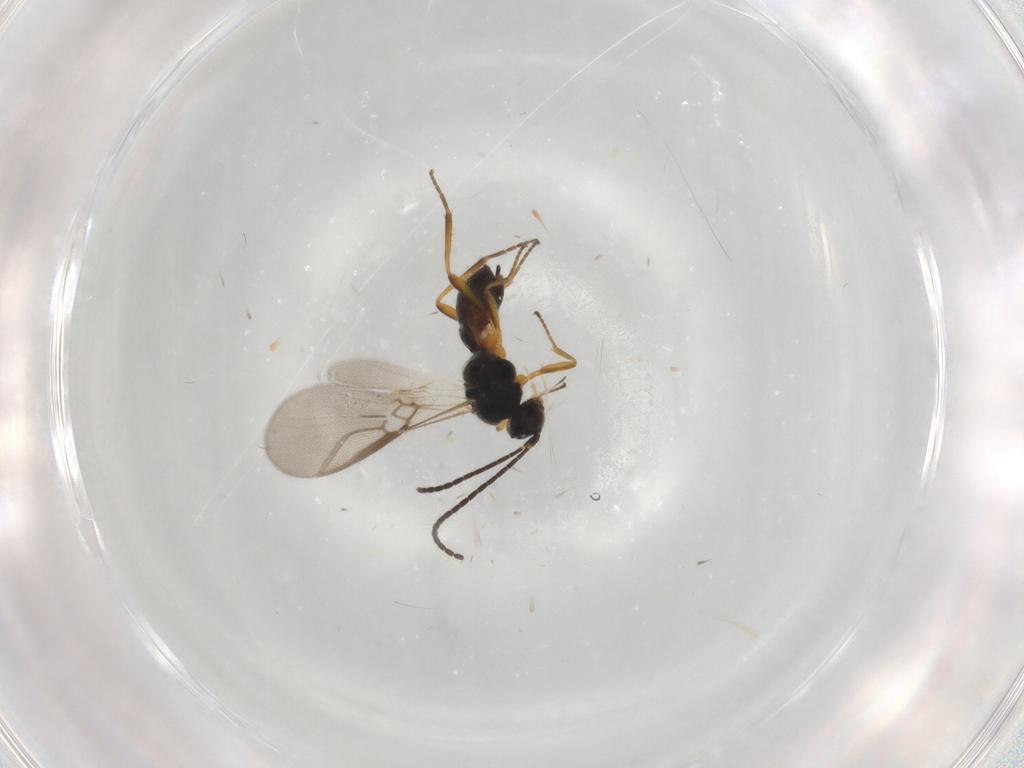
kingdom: Animalia
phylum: Arthropoda
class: Insecta
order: Hymenoptera
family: Braconidae
